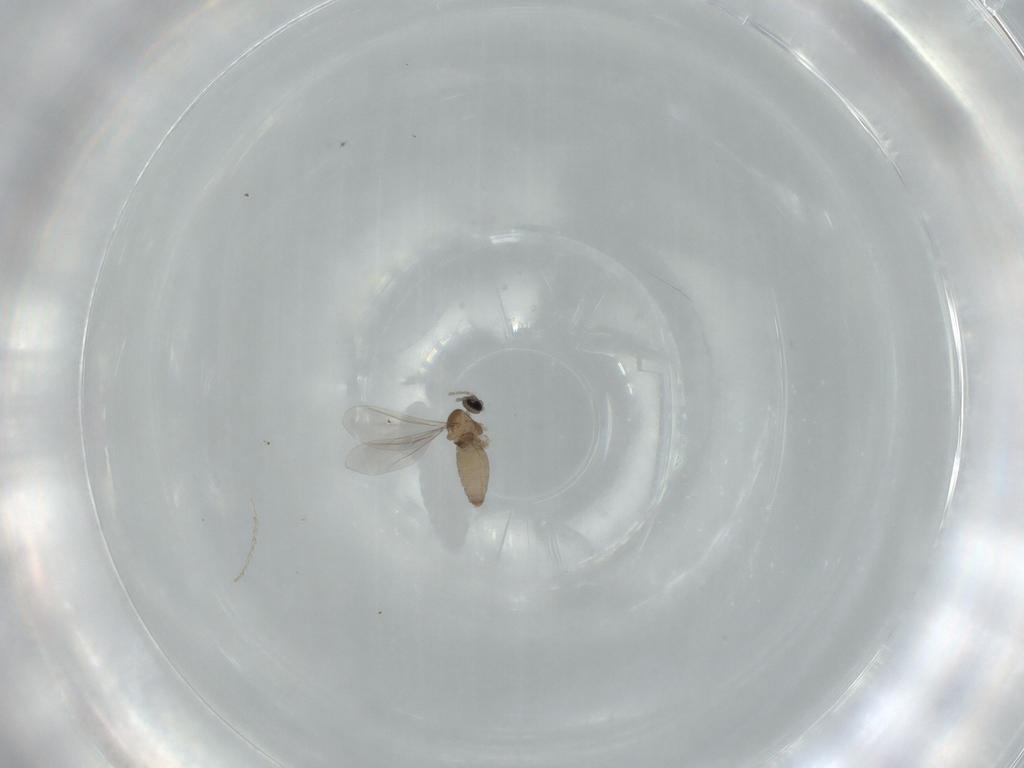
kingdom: Animalia
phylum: Arthropoda
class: Insecta
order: Diptera
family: Cecidomyiidae
